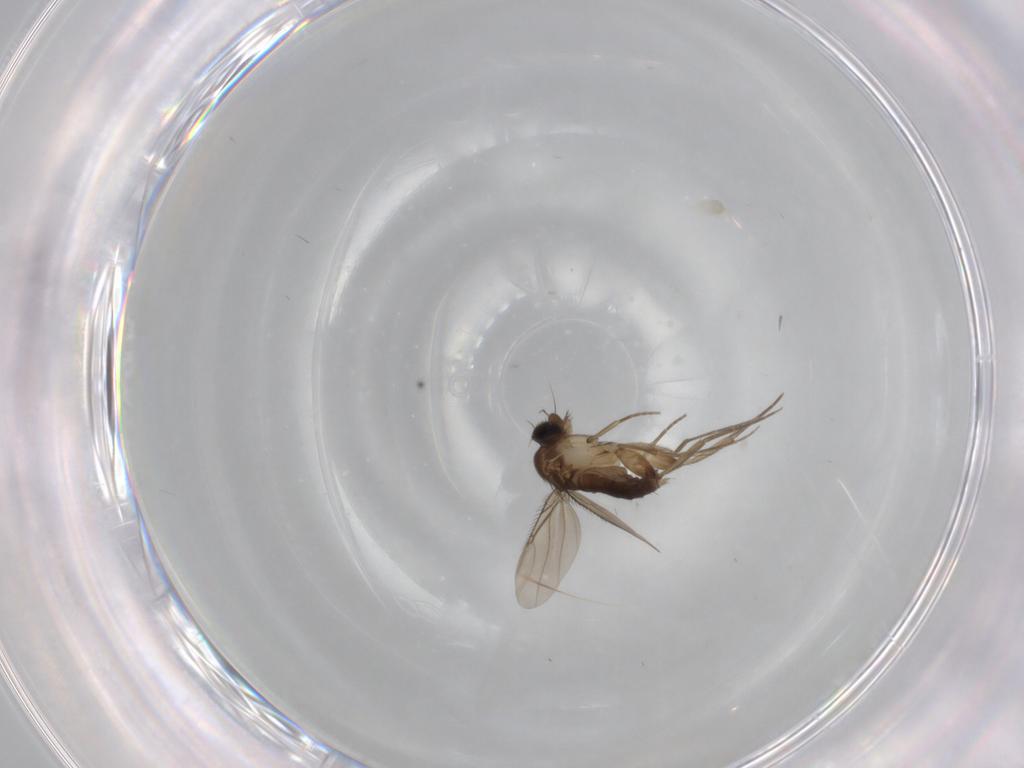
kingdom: Animalia
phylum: Arthropoda
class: Insecta
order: Diptera
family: Phoridae
